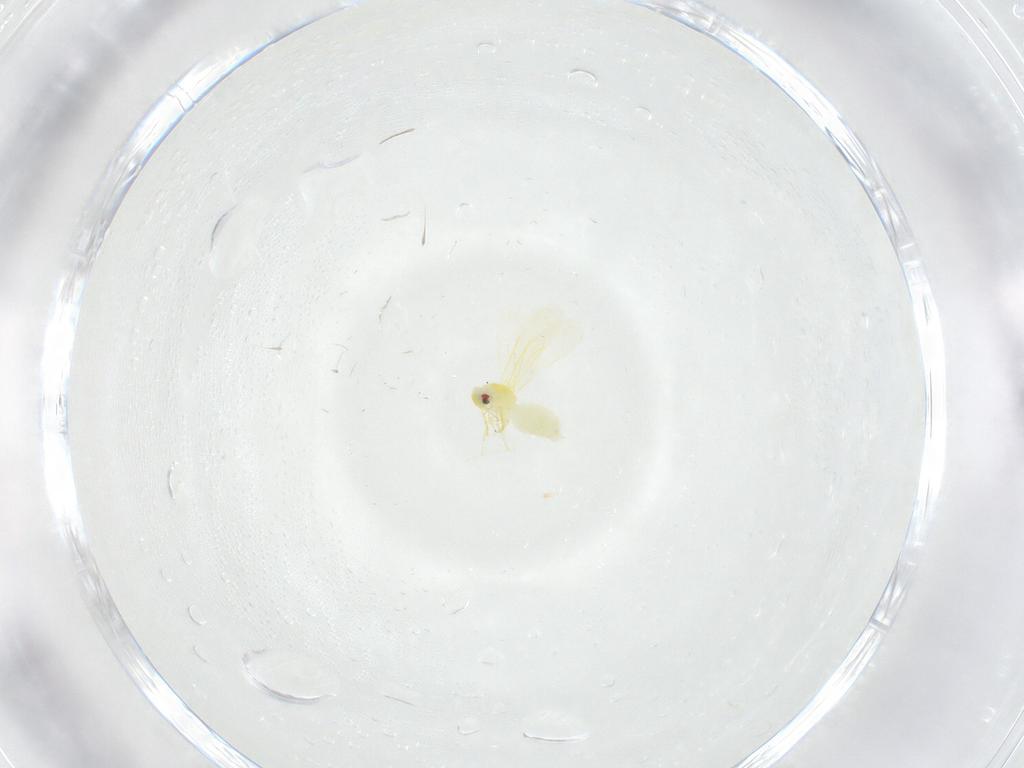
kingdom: Animalia
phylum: Arthropoda
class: Insecta
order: Hemiptera
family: Aleyrodidae
